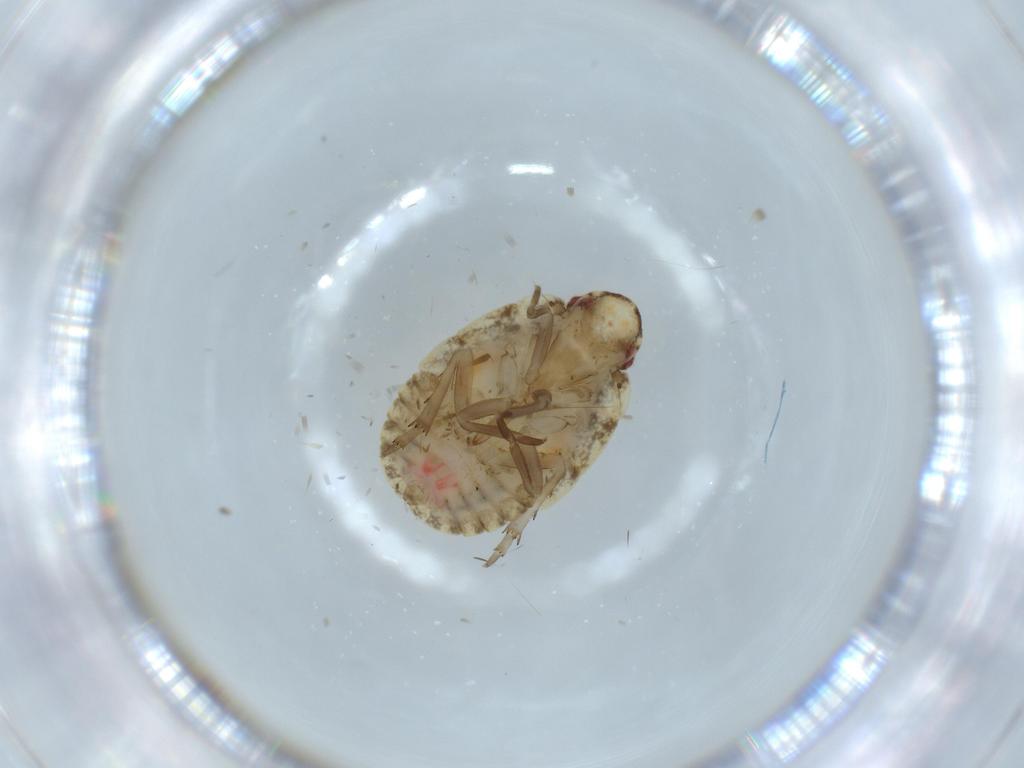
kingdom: Animalia
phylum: Arthropoda
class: Insecta
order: Hemiptera
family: Flatidae
